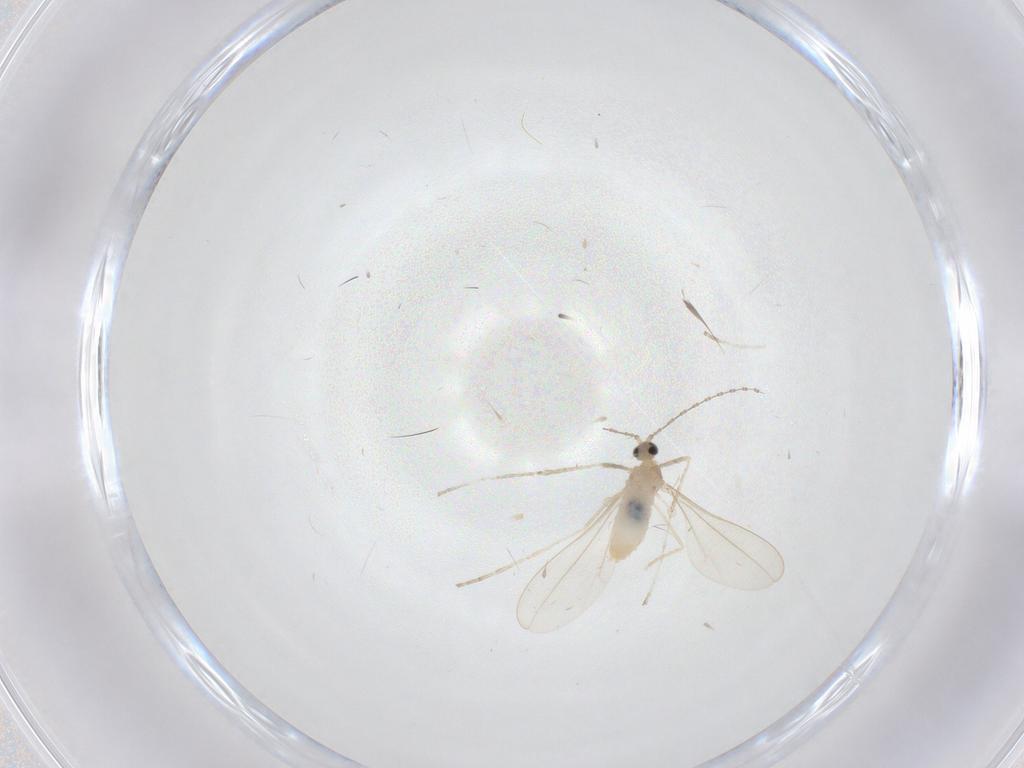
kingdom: Animalia
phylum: Arthropoda
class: Insecta
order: Diptera
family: Cecidomyiidae
